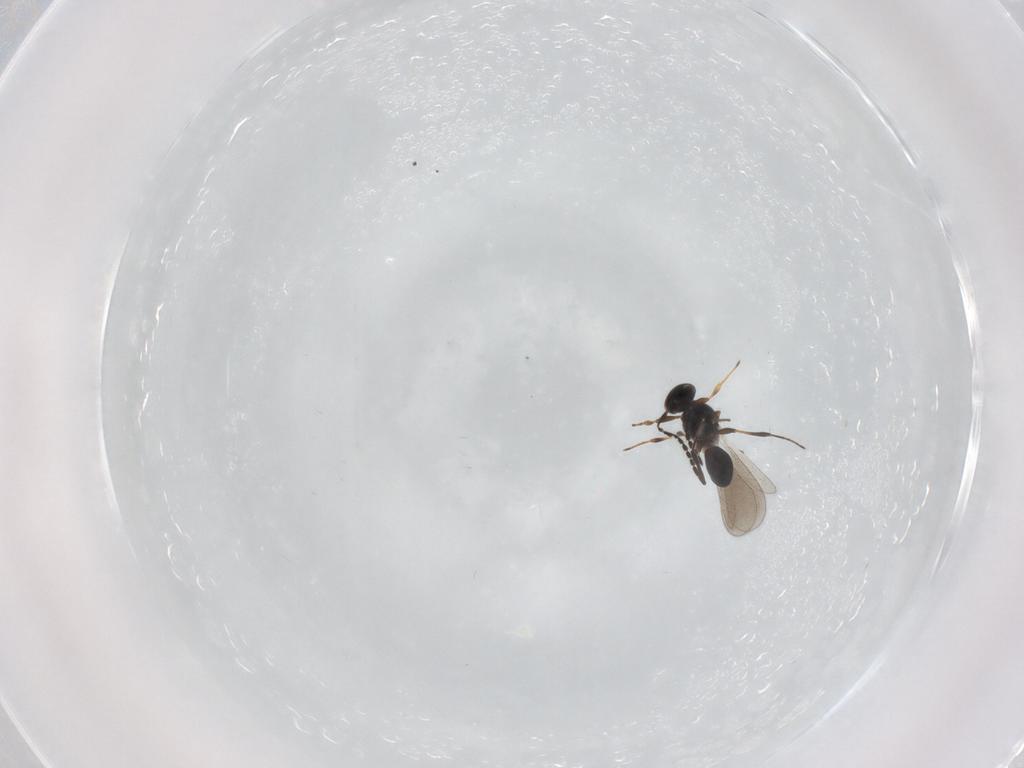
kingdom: Animalia
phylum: Arthropoda
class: Insecta
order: Hymenoptera
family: Platygastridae
